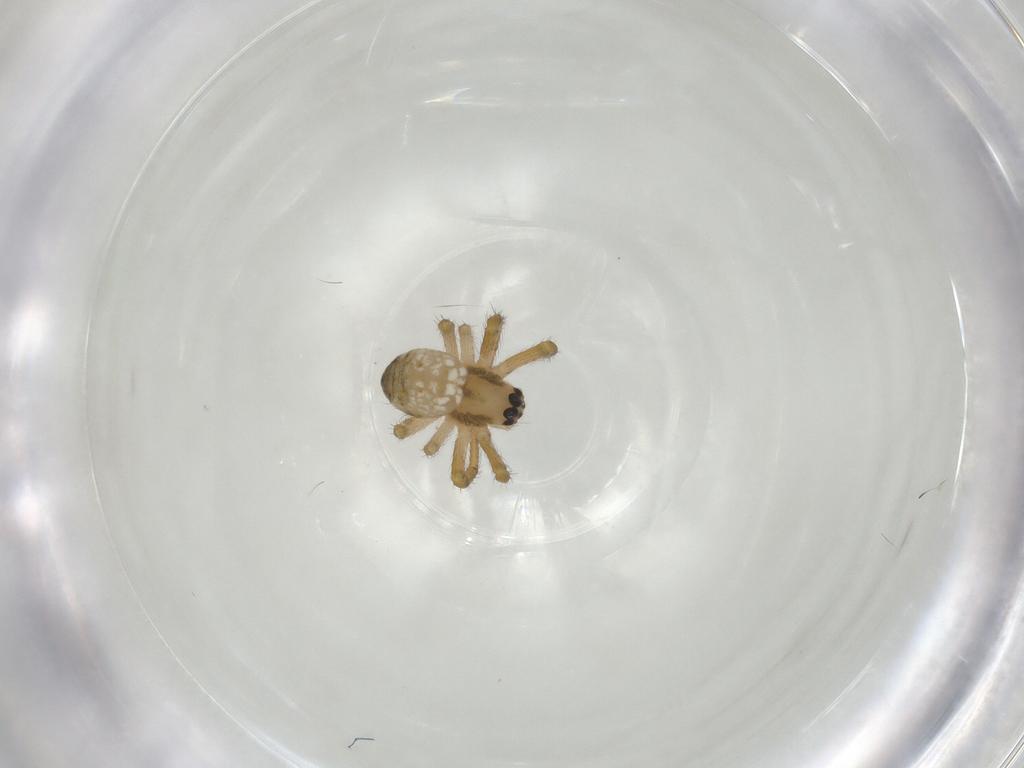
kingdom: Animalia
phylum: Arthropoda
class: Arachnida
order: Araneae
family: Araneidae
